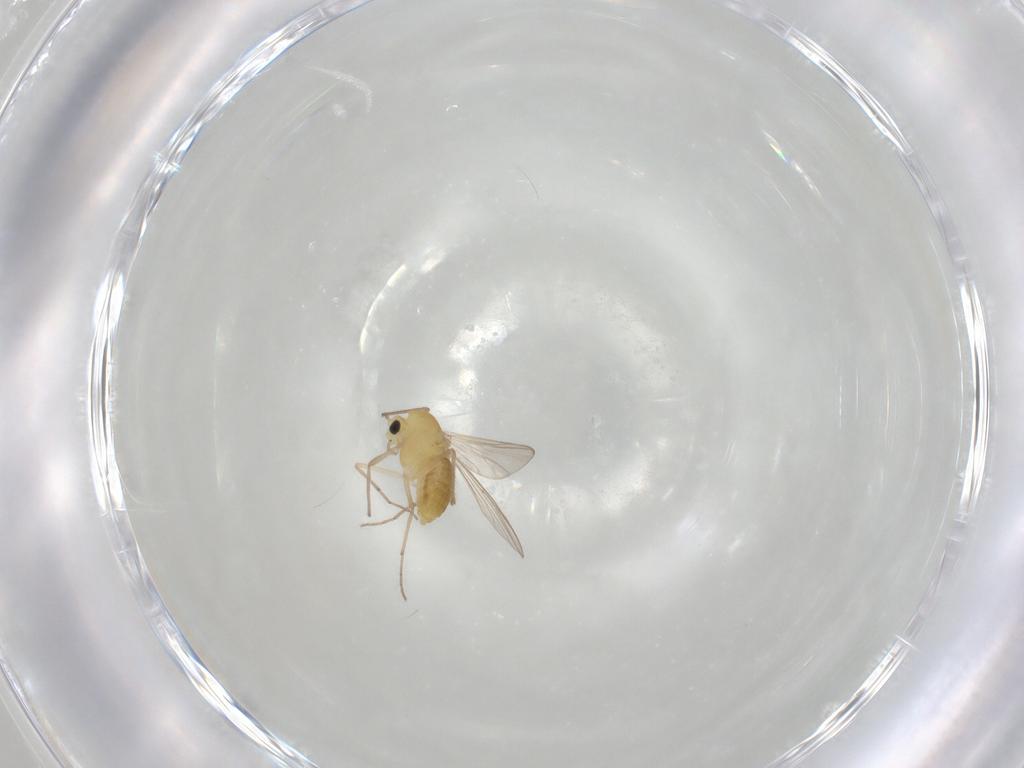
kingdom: Animalia
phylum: Arthropoda
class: Insecta
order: Diptera
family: Chironomidae
